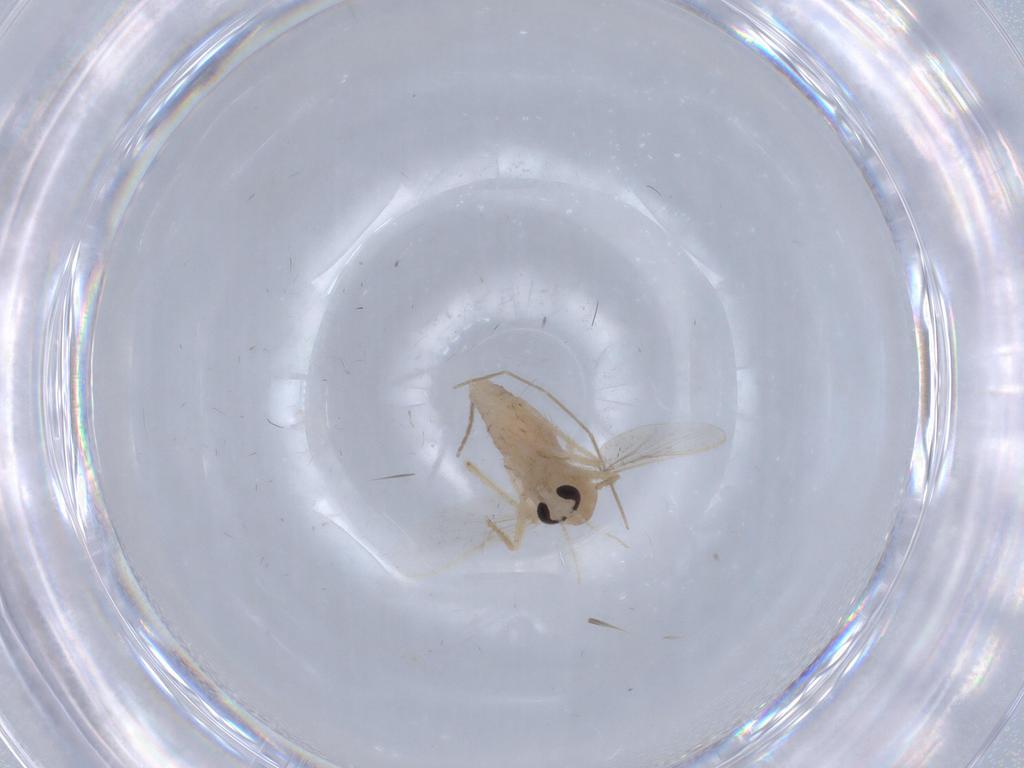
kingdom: Animalia
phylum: Arthropoda
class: Insecta
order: Diptera
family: Chironomidae
